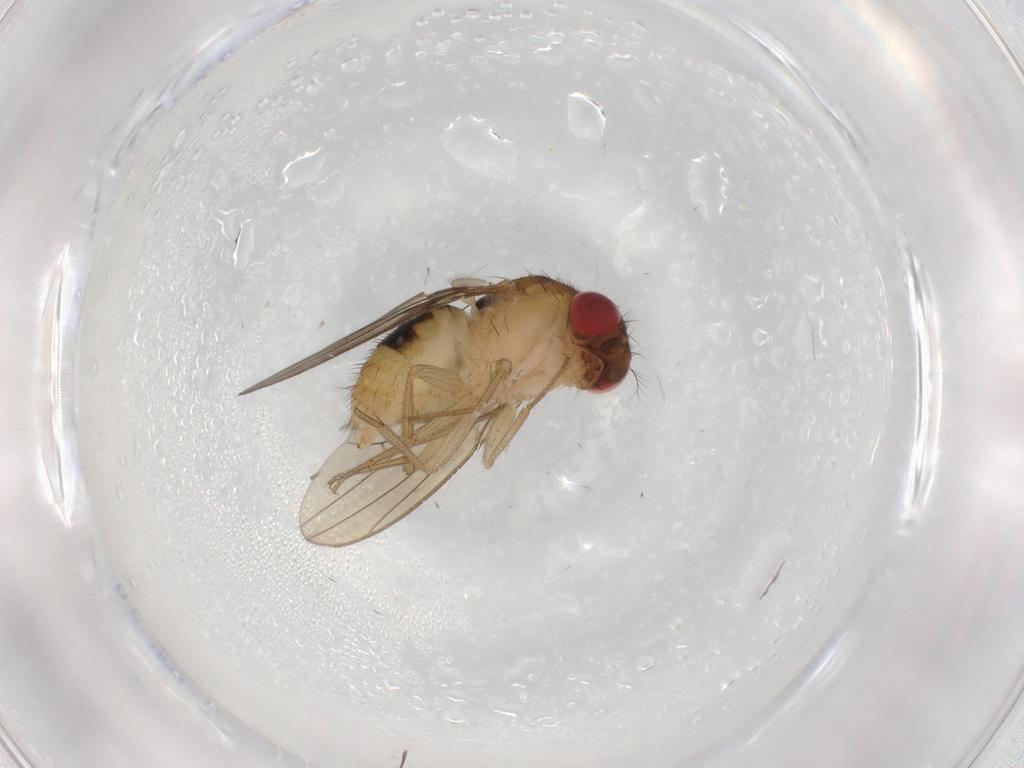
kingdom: Animalia
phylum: Arthropoda
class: Insecta
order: Diptera
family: Drosophilidae
